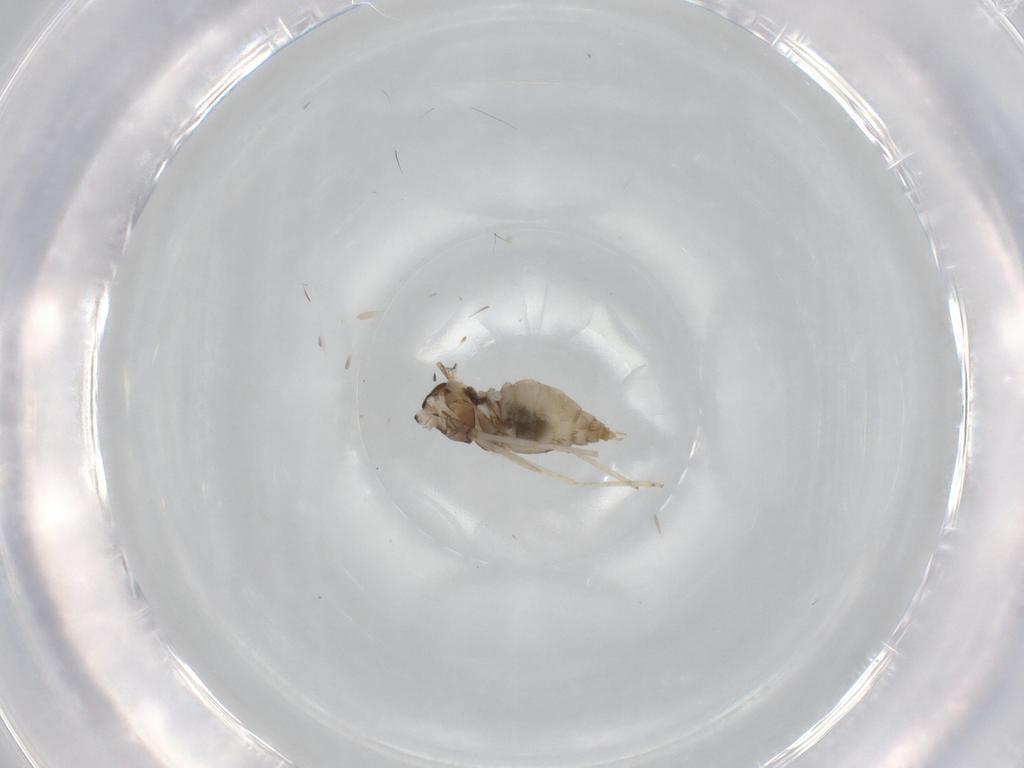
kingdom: Animalia
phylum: Arthropoda
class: Insecta
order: Diptera
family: Cecidomyiidae
